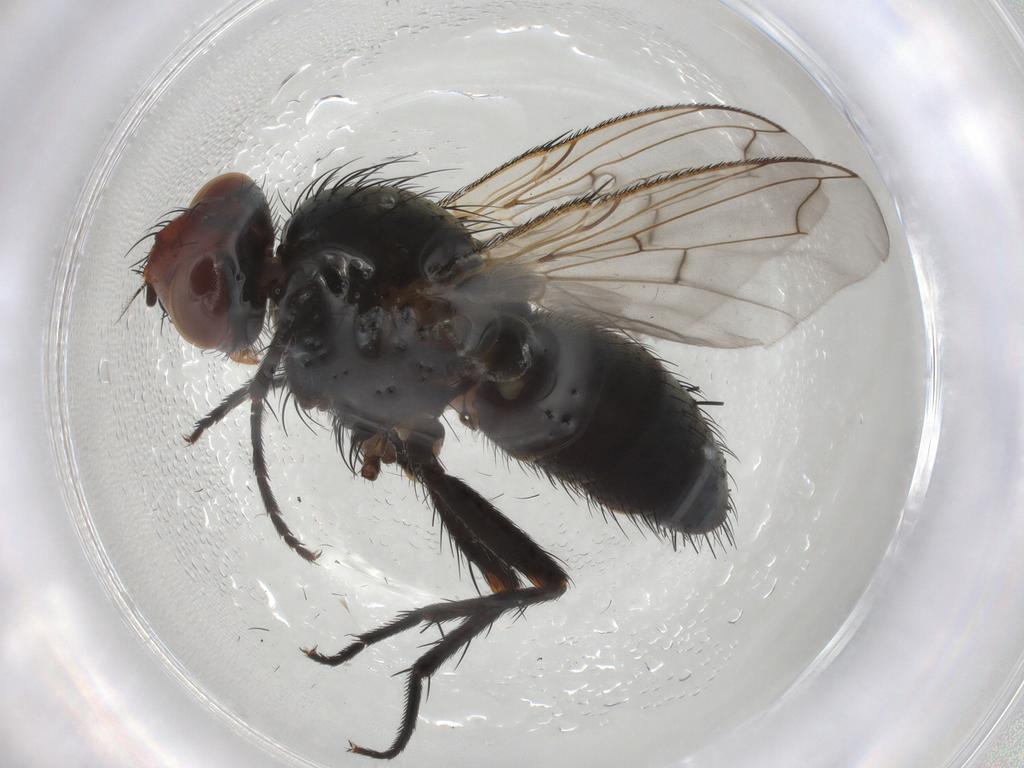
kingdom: Animalia
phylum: Arthropoda
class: Insecta
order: Diptera
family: Tachinidae
